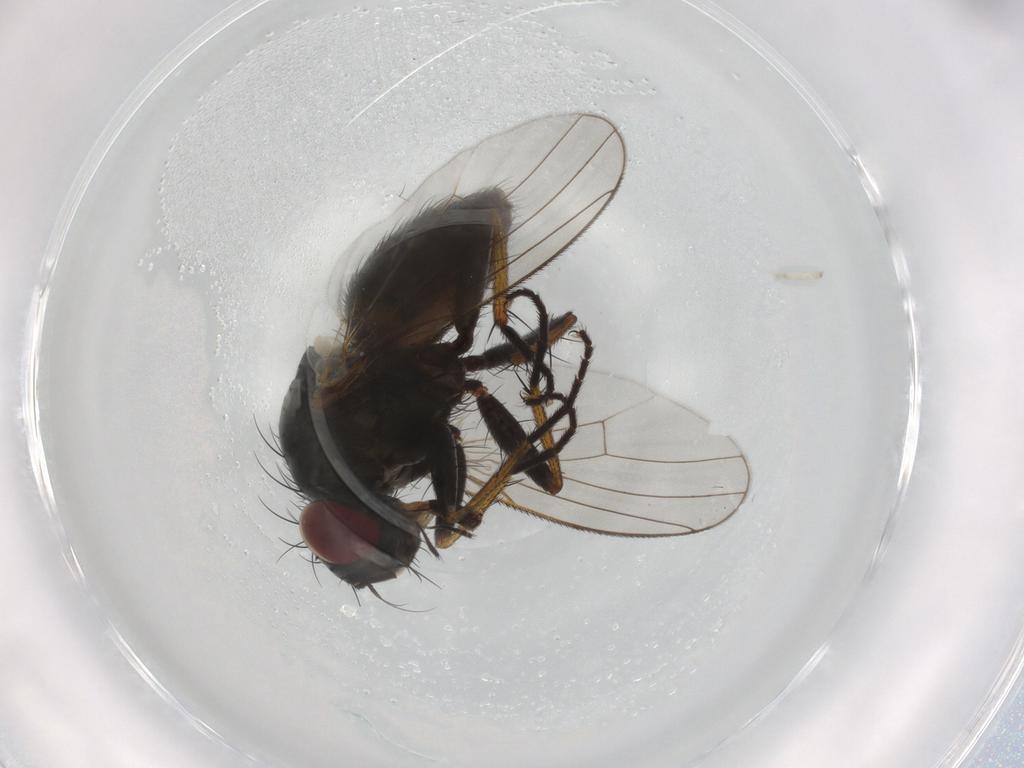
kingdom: Animalia
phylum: Arthropoda
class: Insecta
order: Diptera
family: Muscidae
